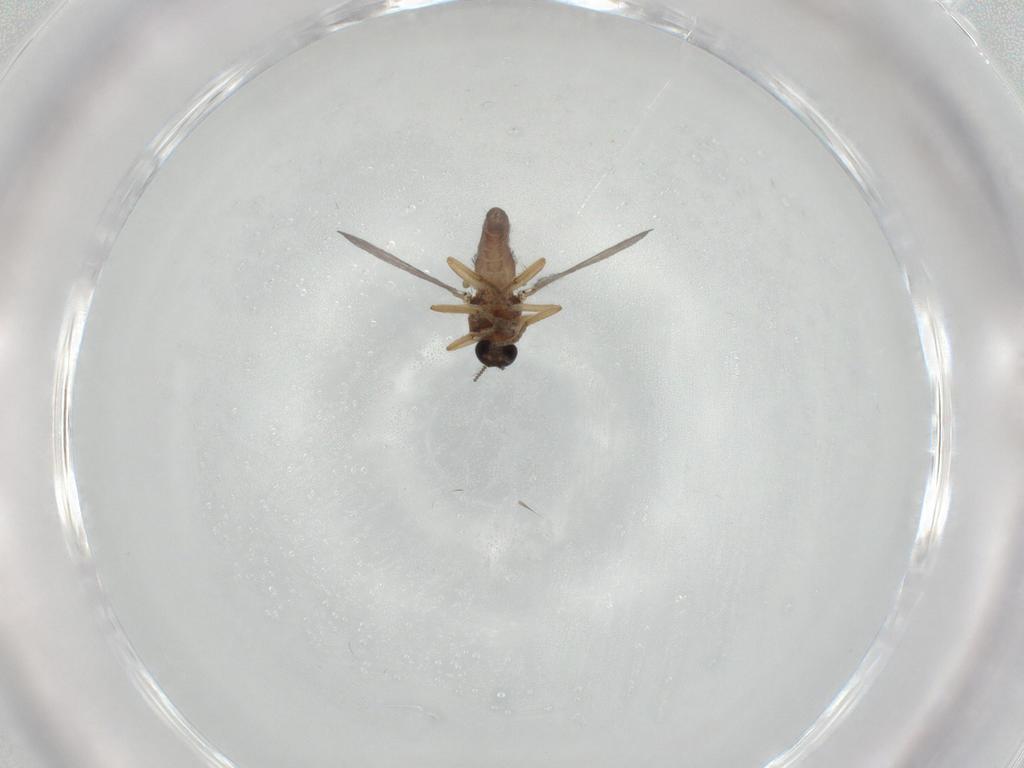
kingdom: Animalia
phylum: Arthropoda
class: Insecta
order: Diptera
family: Ceratopogonidae
